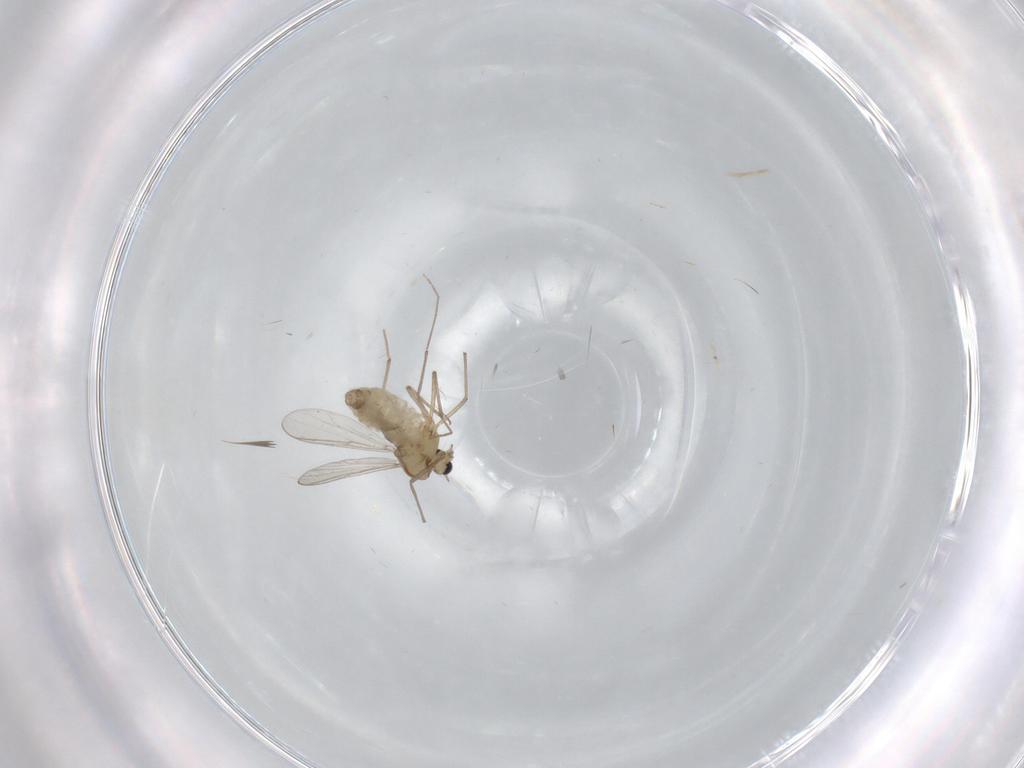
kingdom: Animalia
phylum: Arthropoda
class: Insecta
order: Diptera
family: Chironomidae
